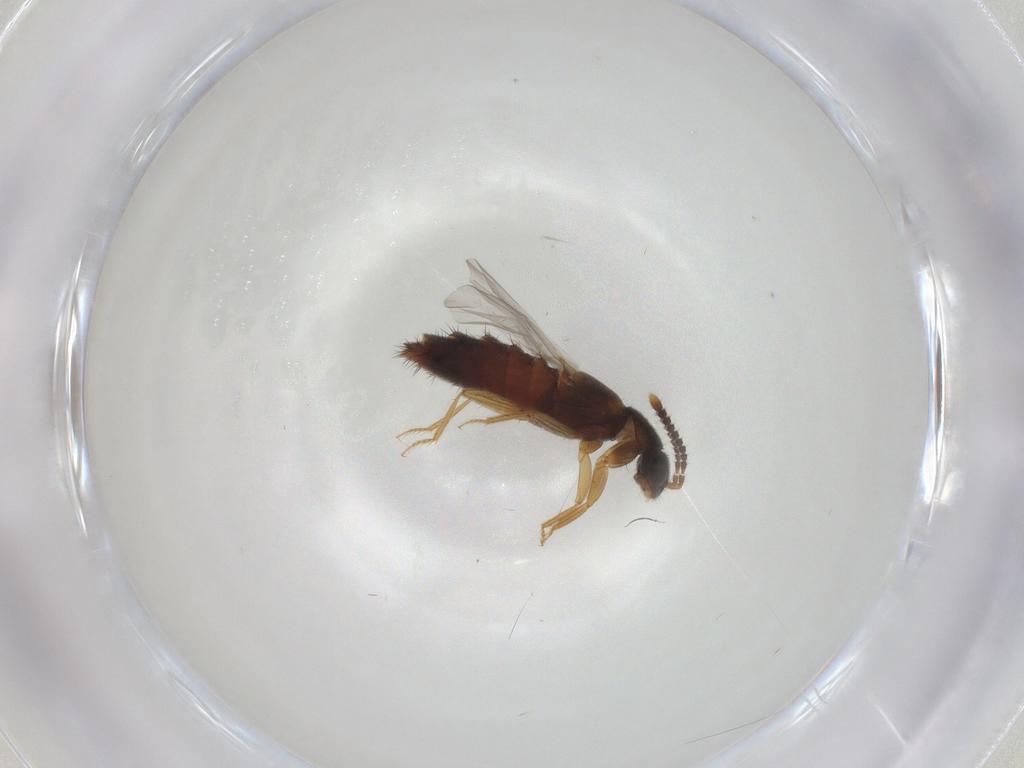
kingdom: Animalia
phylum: Arthropoda
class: Insecta
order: Coleoptera
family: Staphylinidae
